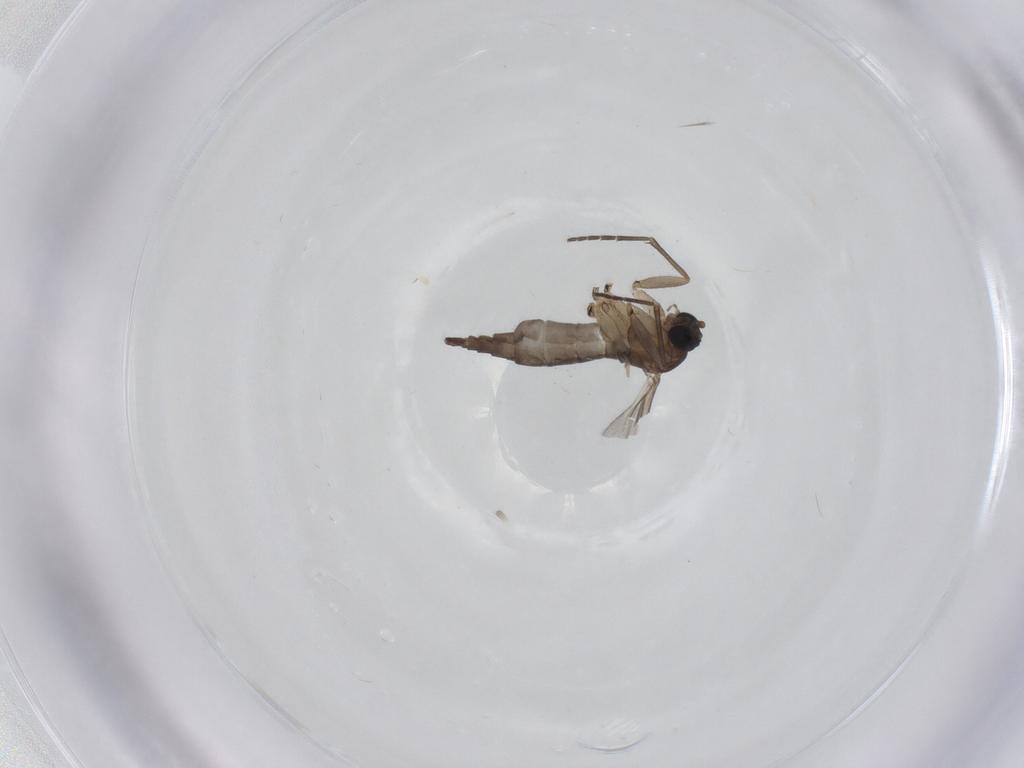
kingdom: Animalia
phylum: Arthropoda
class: Insecta
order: Diptera
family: Sciaridae
